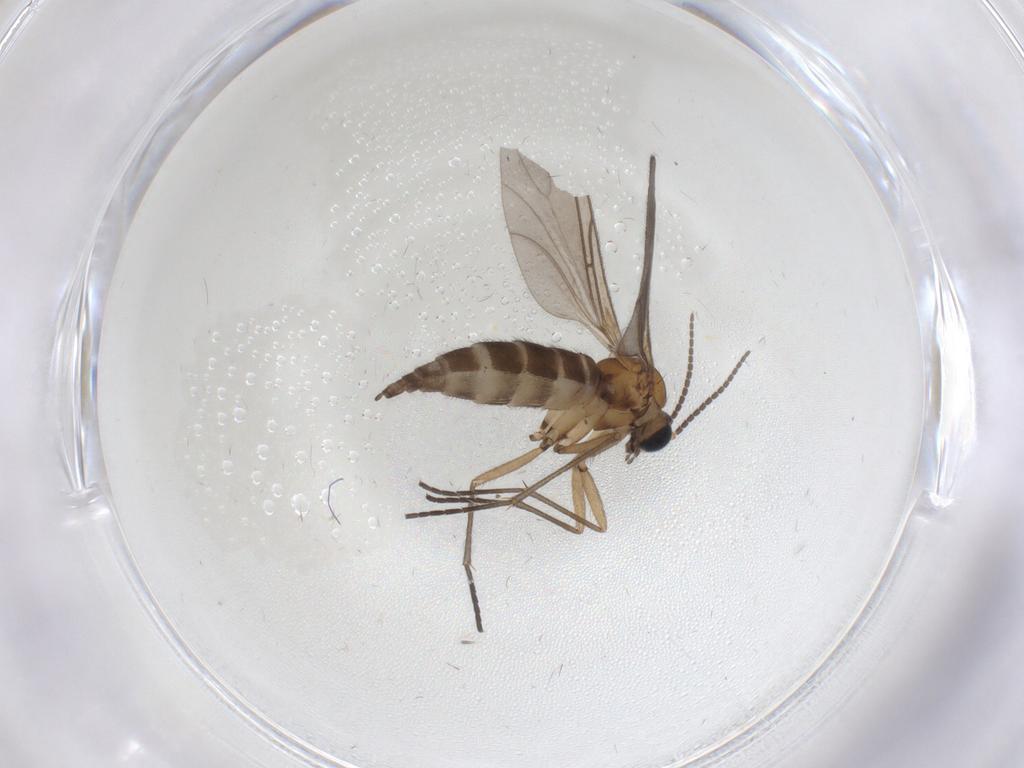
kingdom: Animalia
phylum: Arthropoda
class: Insecta
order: Diptera
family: Sciaridae
